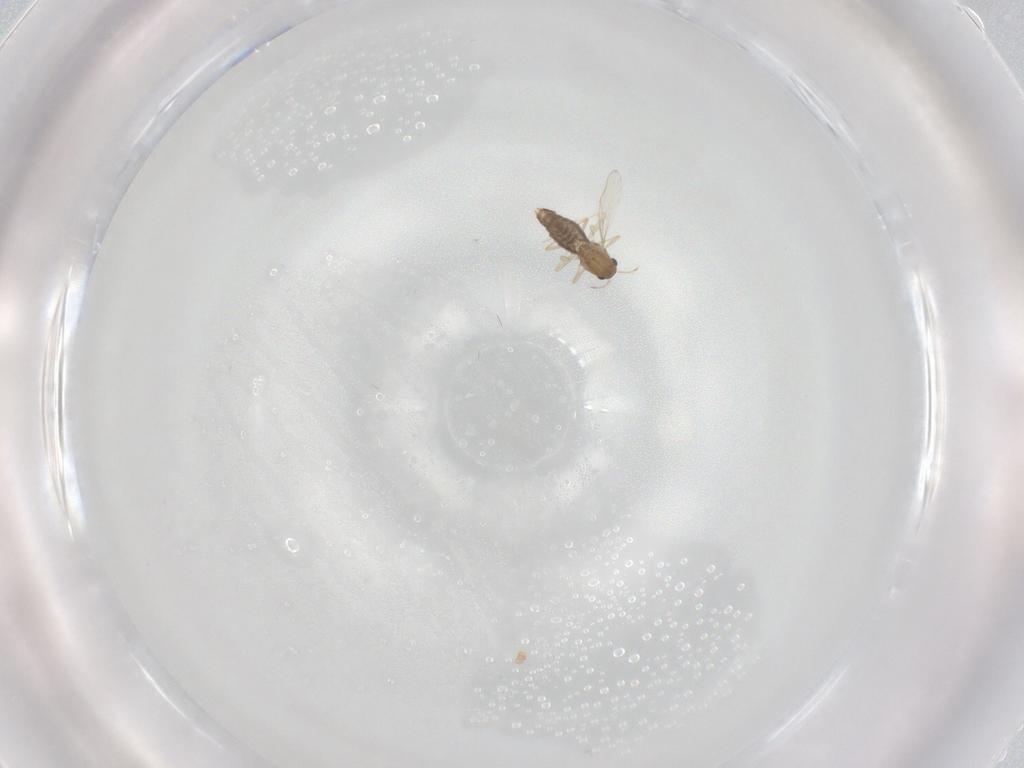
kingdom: Animalia
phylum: Arthropoda
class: Insecta
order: Diptera
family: Chironomidae
